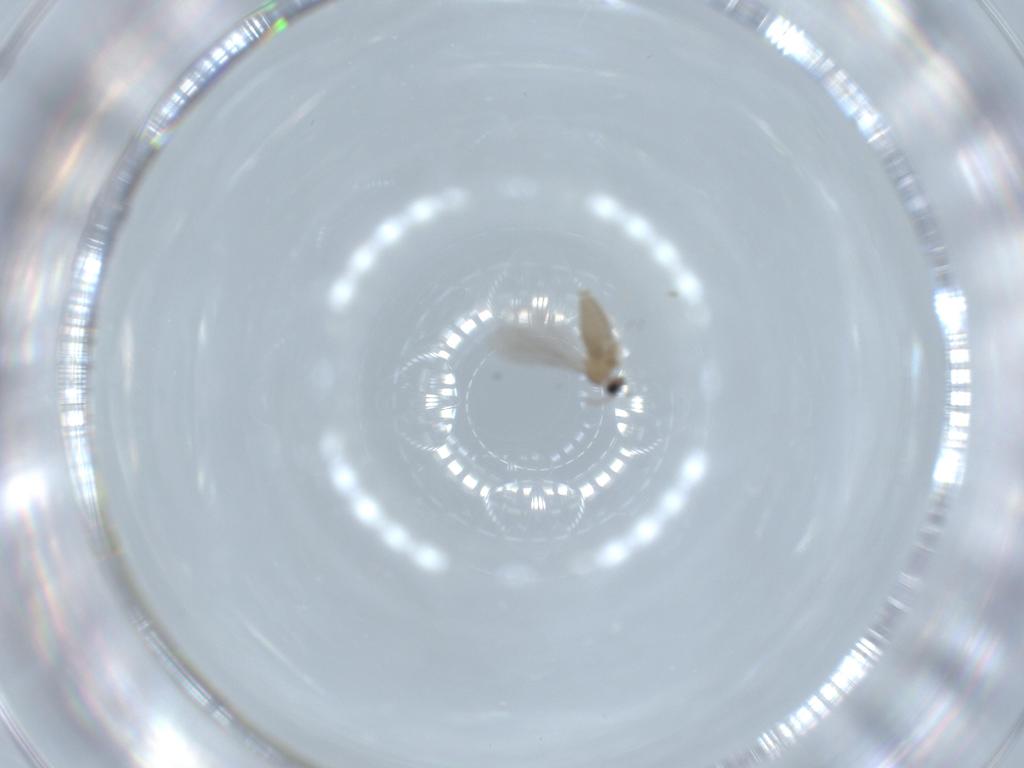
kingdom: Animalia
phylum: Arthropoda
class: Insecta
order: Diptera
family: Cecidomyiidae
